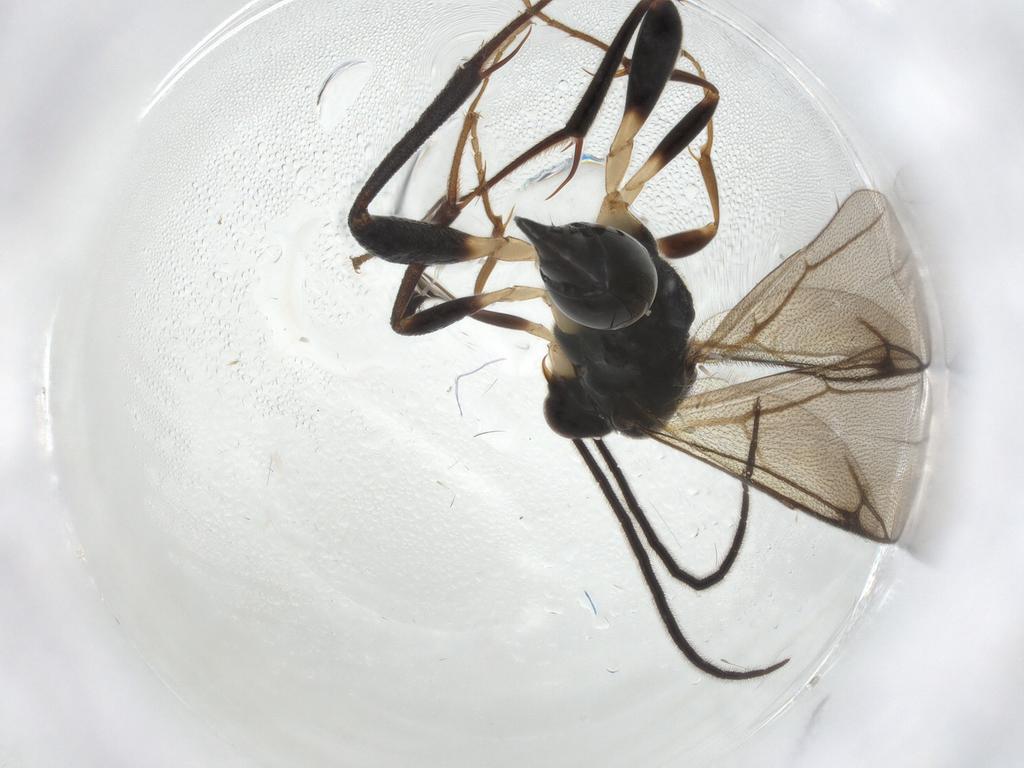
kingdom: Animalia
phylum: Arthropoda
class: Insecta
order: Hymenoptera
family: Proctotrupidae
